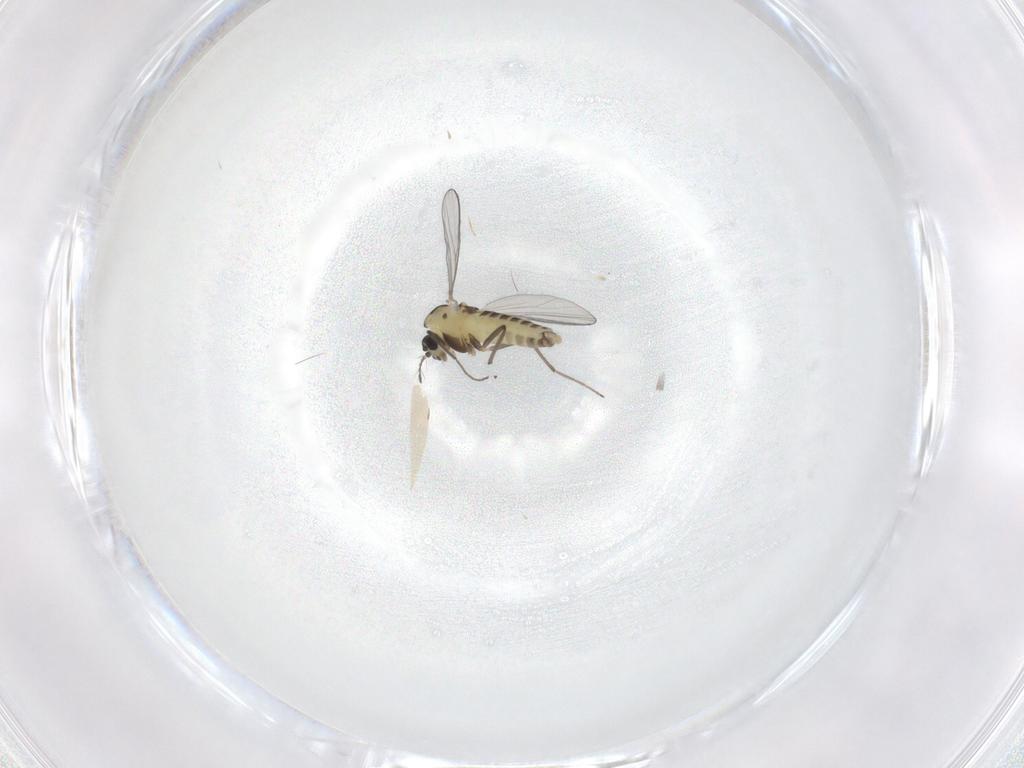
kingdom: Animalia
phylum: Arthropoda
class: Insecta
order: Diptera
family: Chironomidae
